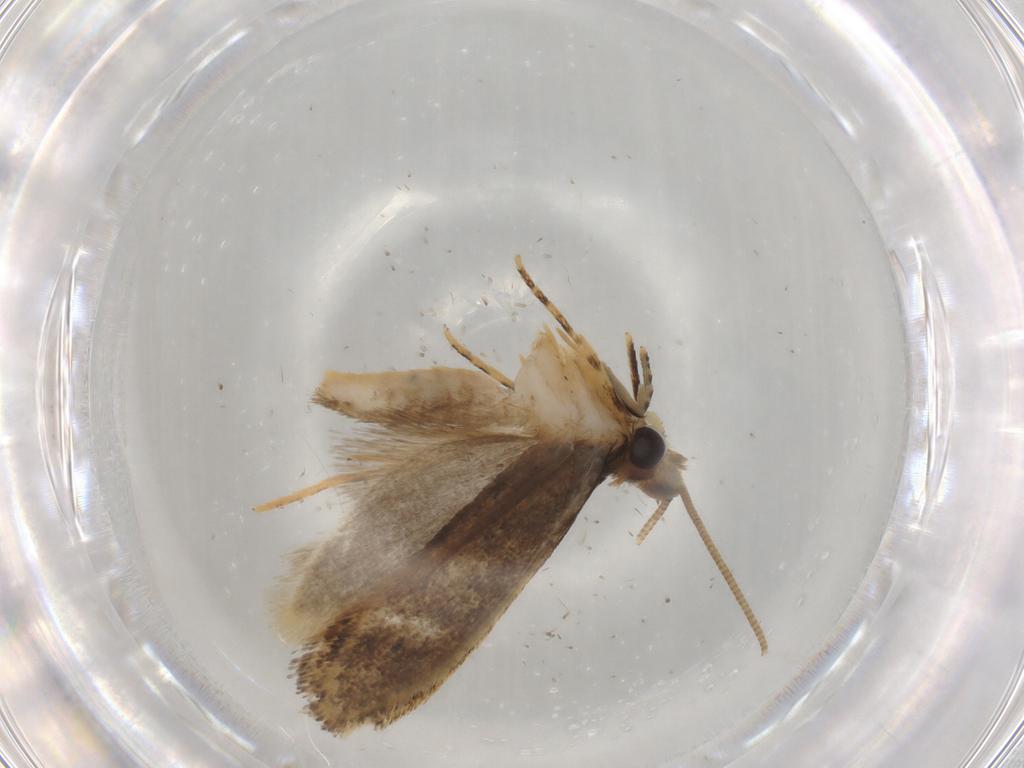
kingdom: Animalia
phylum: Arthropoda
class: Insecta
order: Lepidoptera
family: Cosmopterigidae
